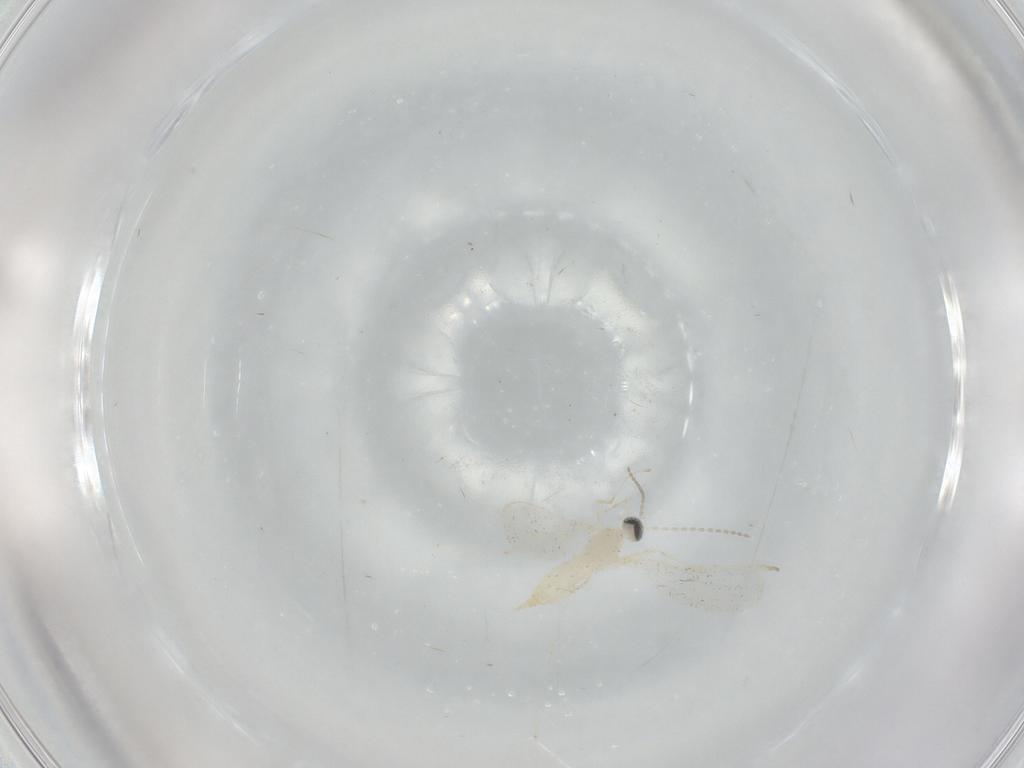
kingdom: Animalia
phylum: Arthropoda
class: Insecta
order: Diptera
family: Cecidomyiidae
